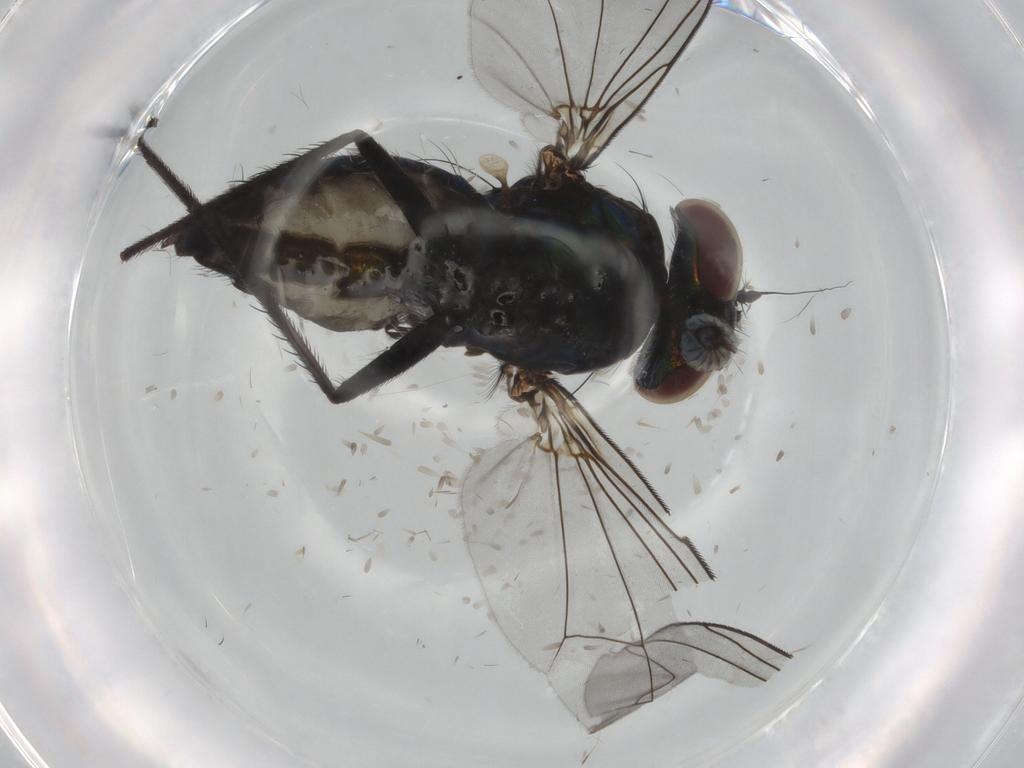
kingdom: Animalia
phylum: Arthropoda
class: Insecta
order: Diptera
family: Dolichopodidae
